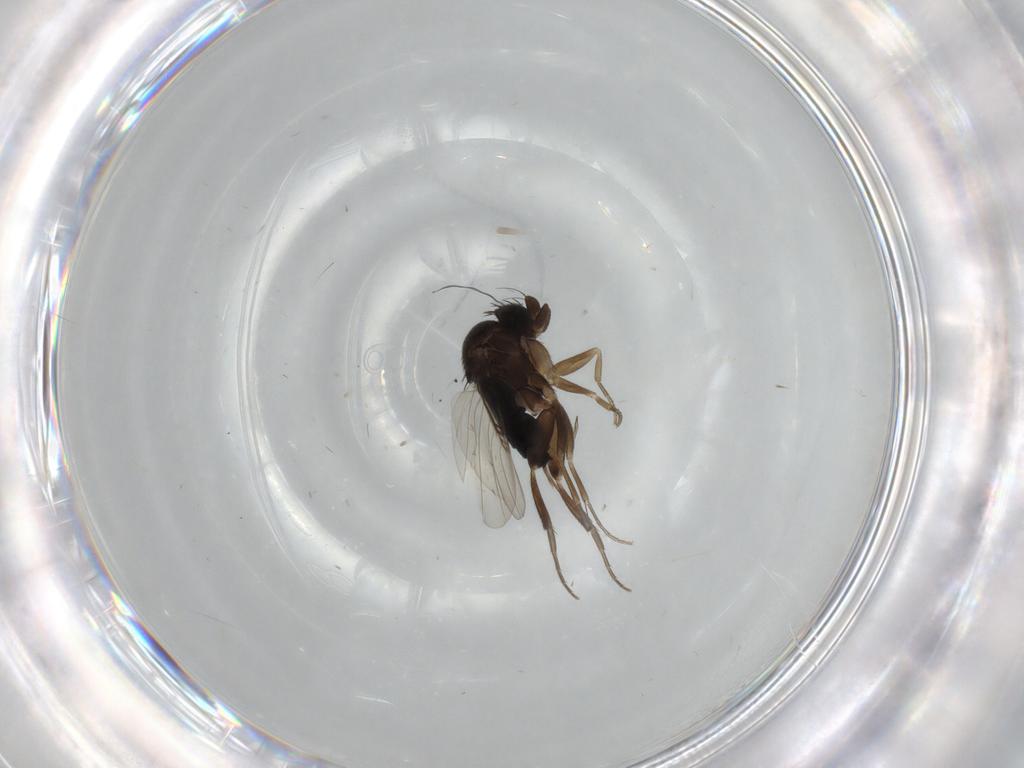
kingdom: Animalia
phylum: Arthropoda
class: Insecta
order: Diptera
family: Phoridae
